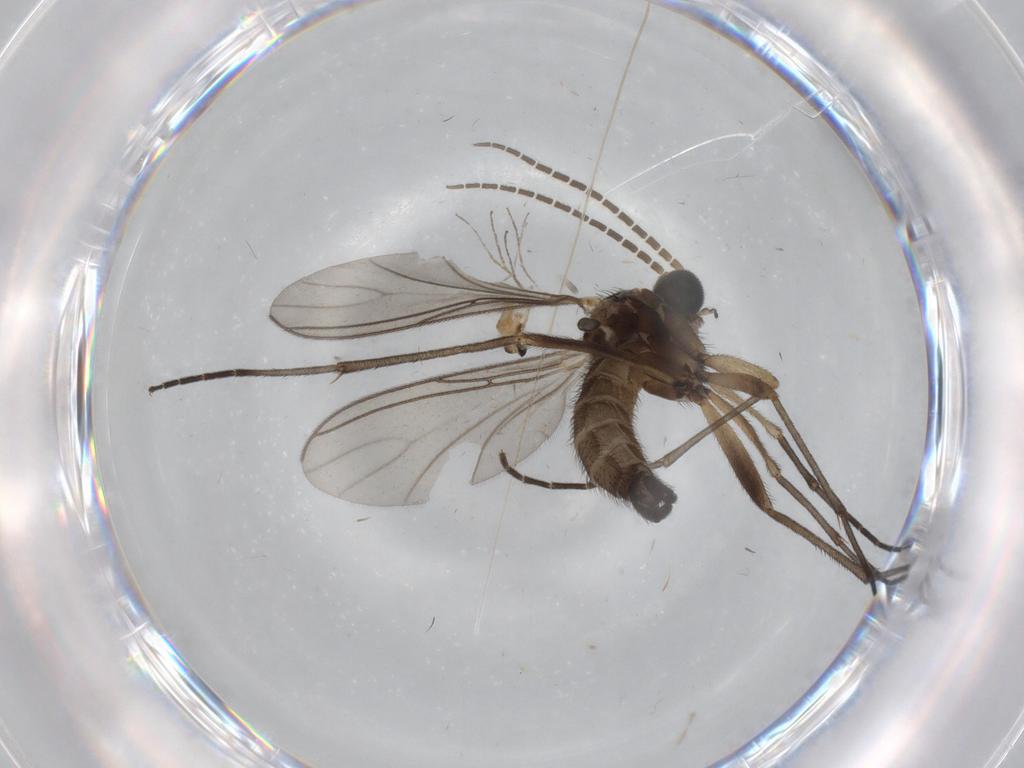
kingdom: Animalia
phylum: Arthropoda
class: Insecta
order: Diptera
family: Sciaridae
